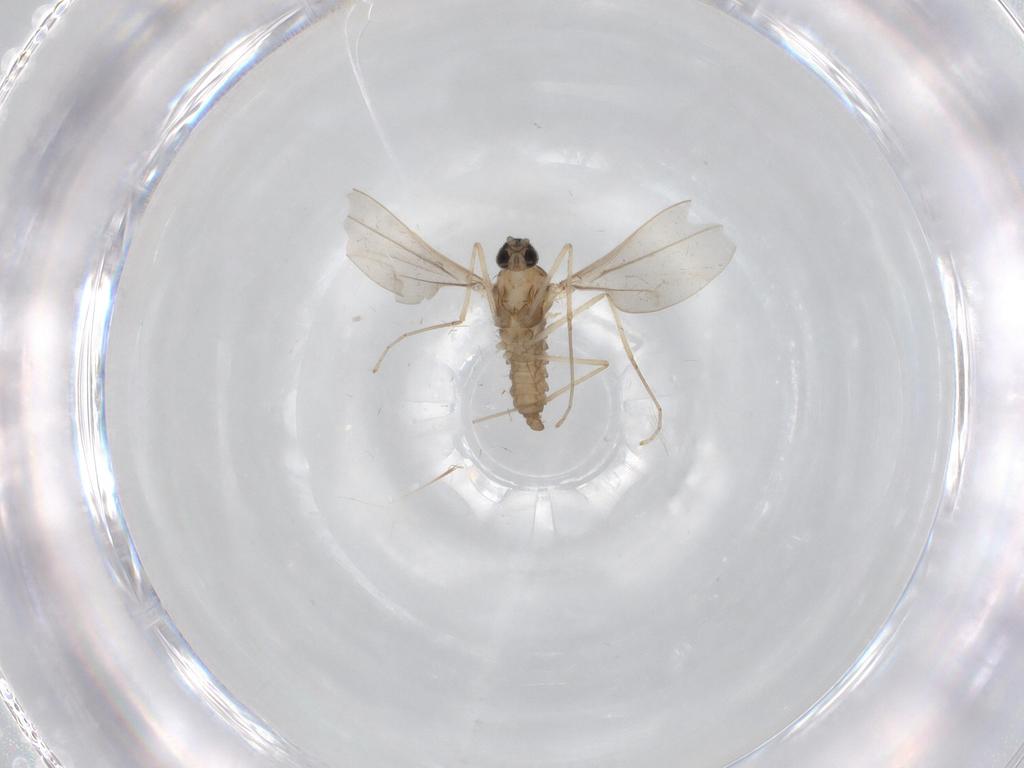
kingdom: Animalia
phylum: Arthropoda
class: Insecta
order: Diptera
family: Cecidomyiidae
